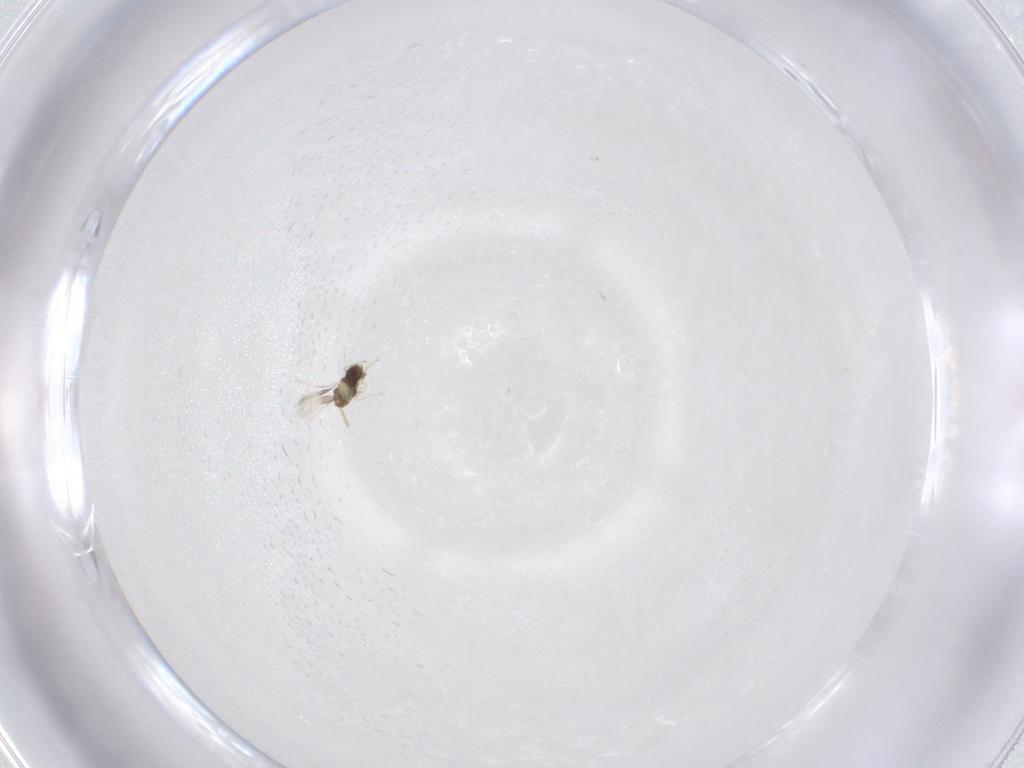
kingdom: Animalia
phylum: Arthropoda
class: Insecta
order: Hymenoptera
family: Aphelinidae
